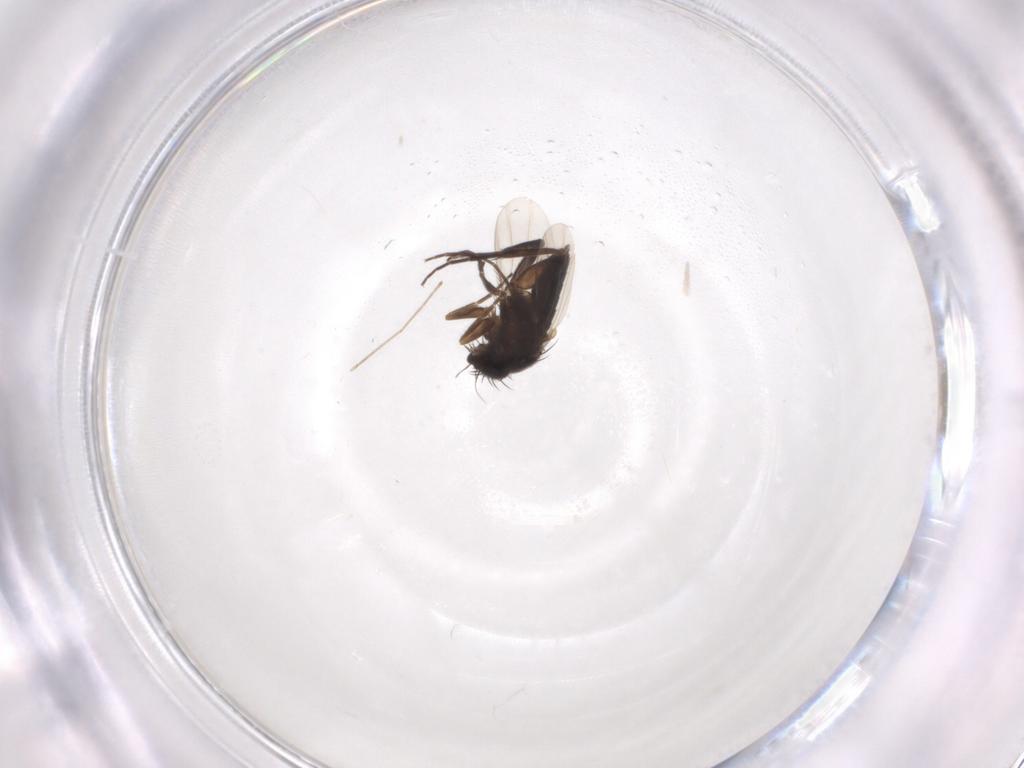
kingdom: Animalia
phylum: Arthropoda
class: Insecta
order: Diptera
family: Phoridae
